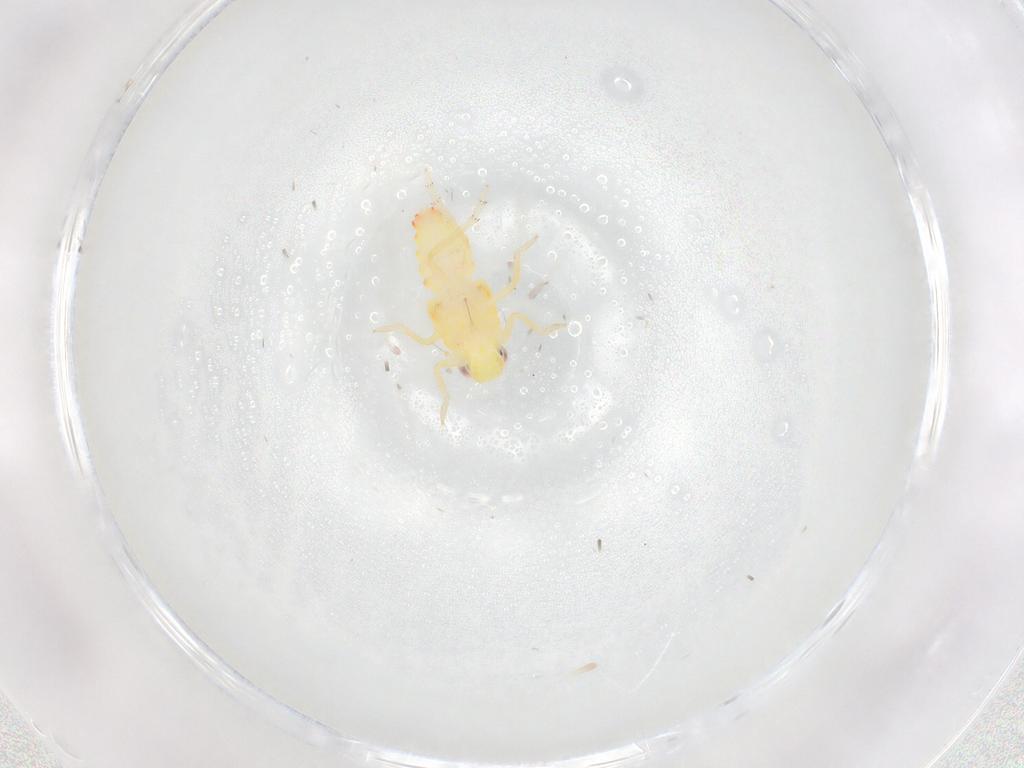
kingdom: Animalia
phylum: Arthropoda
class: Insecta
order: Hemiptera
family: Tropiduchidae
